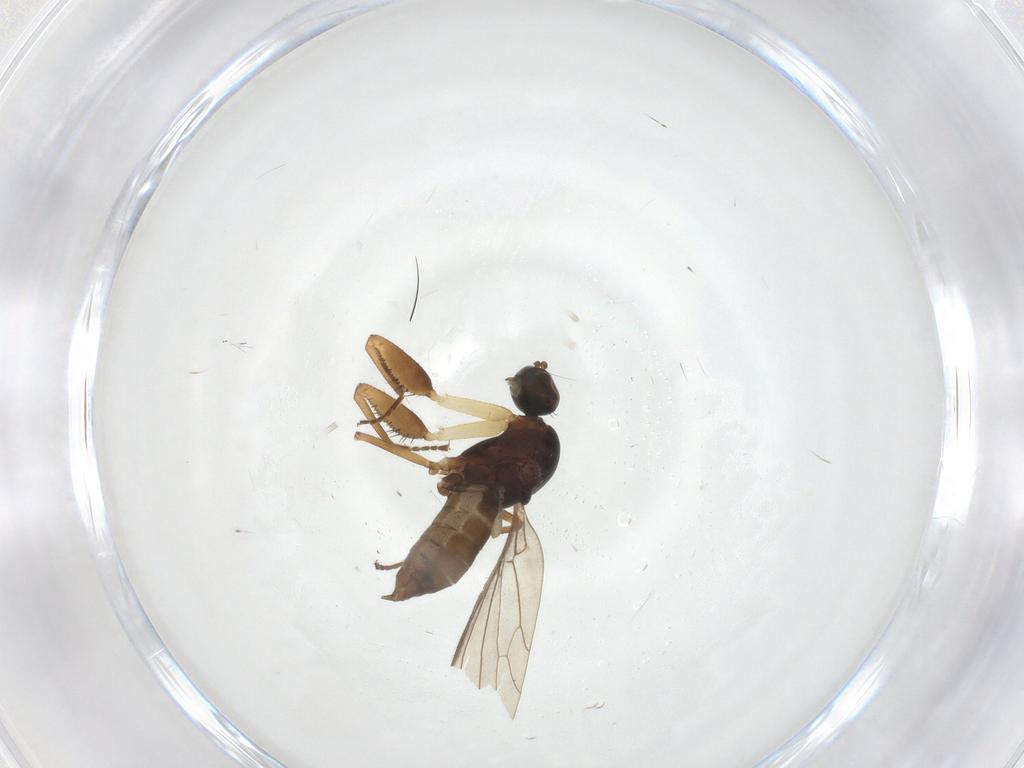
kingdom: Animalia
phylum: Arthropoda
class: Insecta
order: Diptera
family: Empididae
